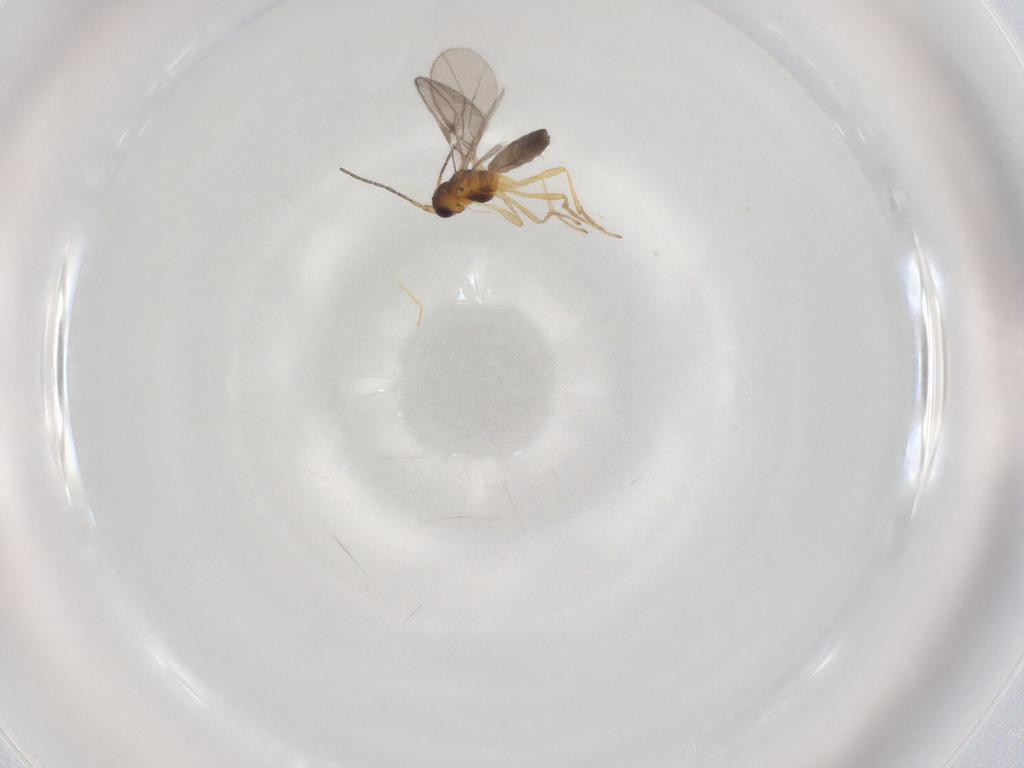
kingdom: Animalia
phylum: Arthropoda
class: Insecta
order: Hymenoptera
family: Braconidae
